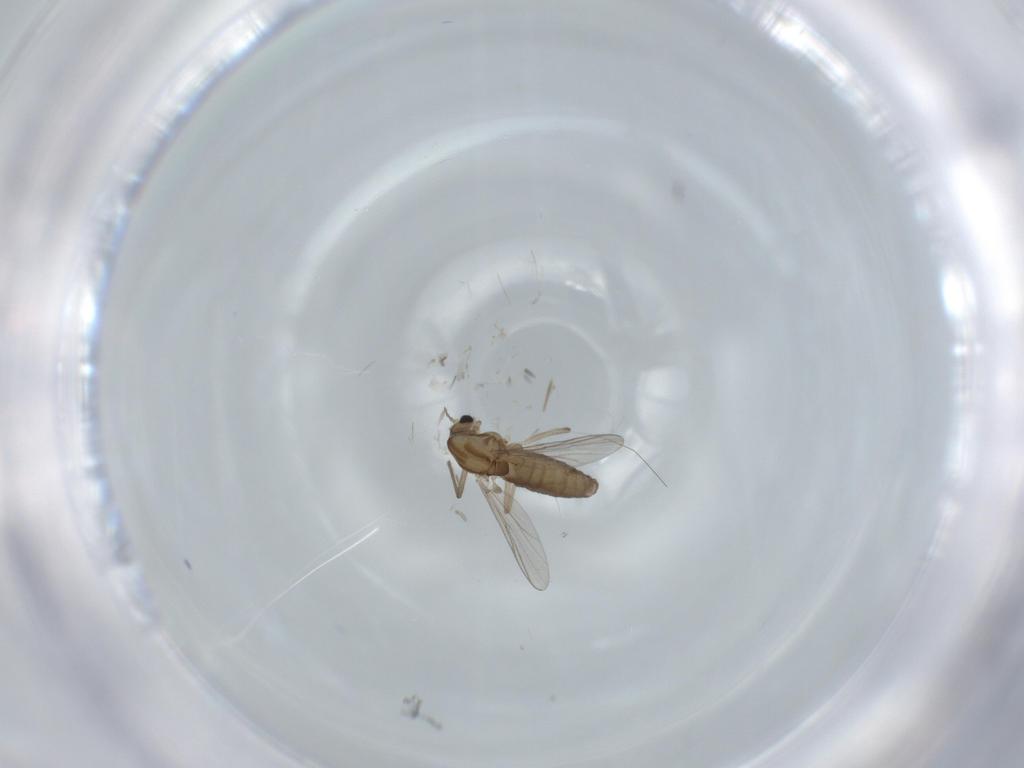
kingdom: Animalia
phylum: Arthropoda
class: Insecta
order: Diptera
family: Chironomidae
